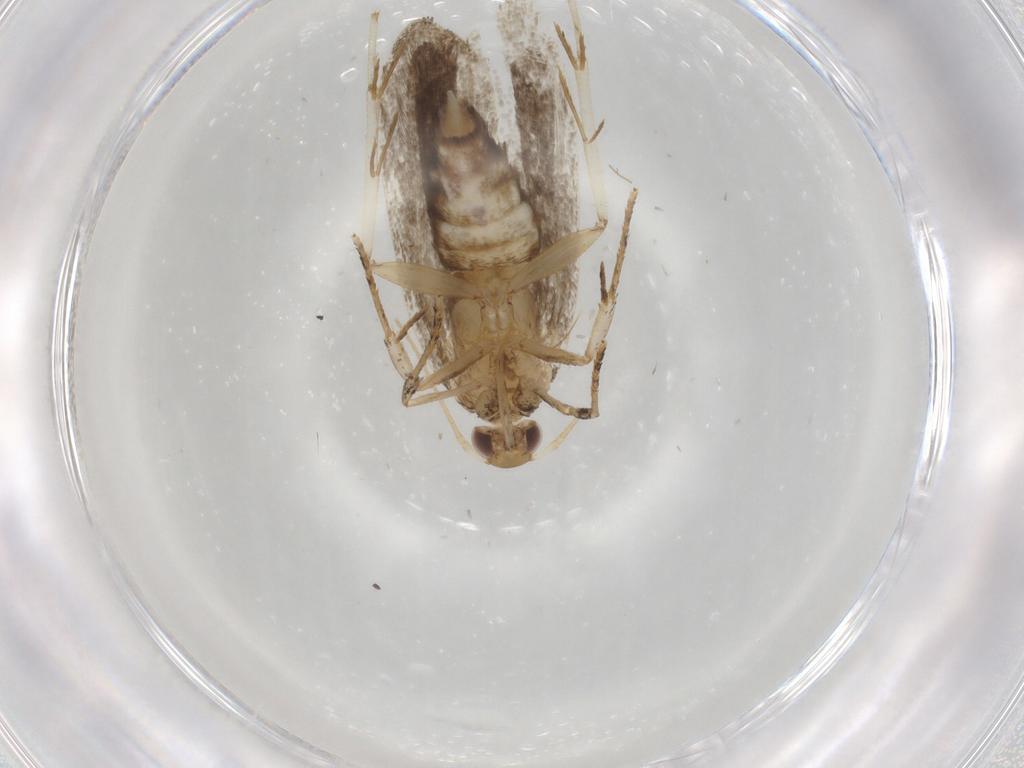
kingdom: Animalia
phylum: Arthropoda
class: Insecta
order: Lepidoptera
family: Gelechiidae
